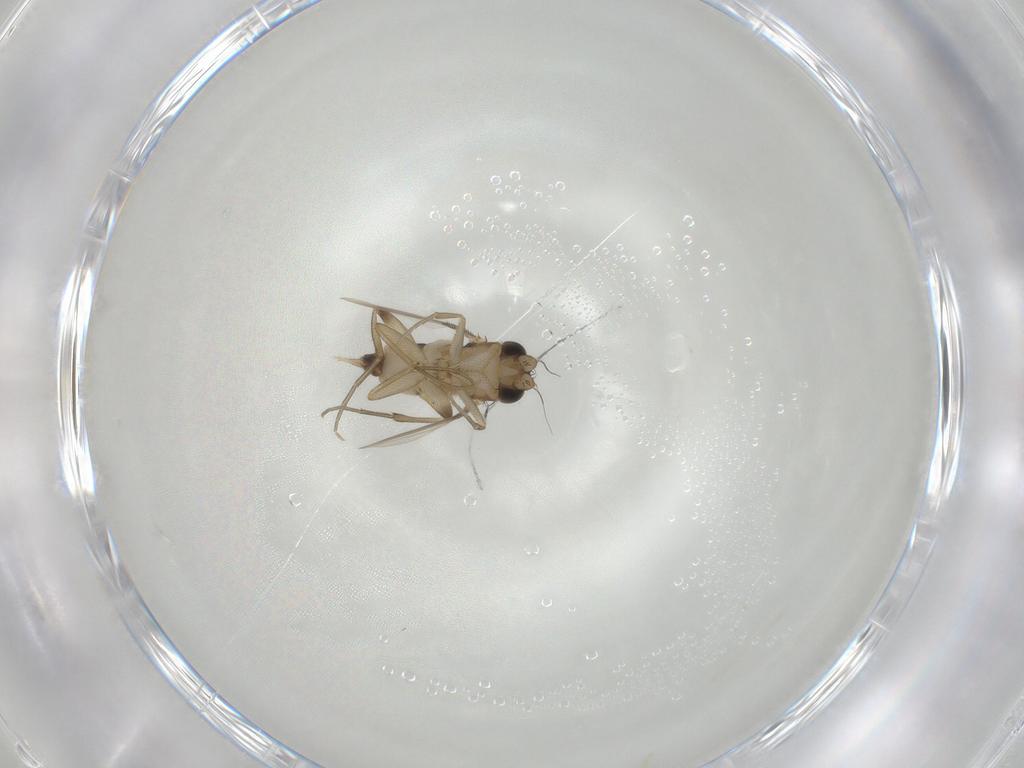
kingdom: Animalia
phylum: Arthropoda
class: Insecta
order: Diptera
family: Phoridae
